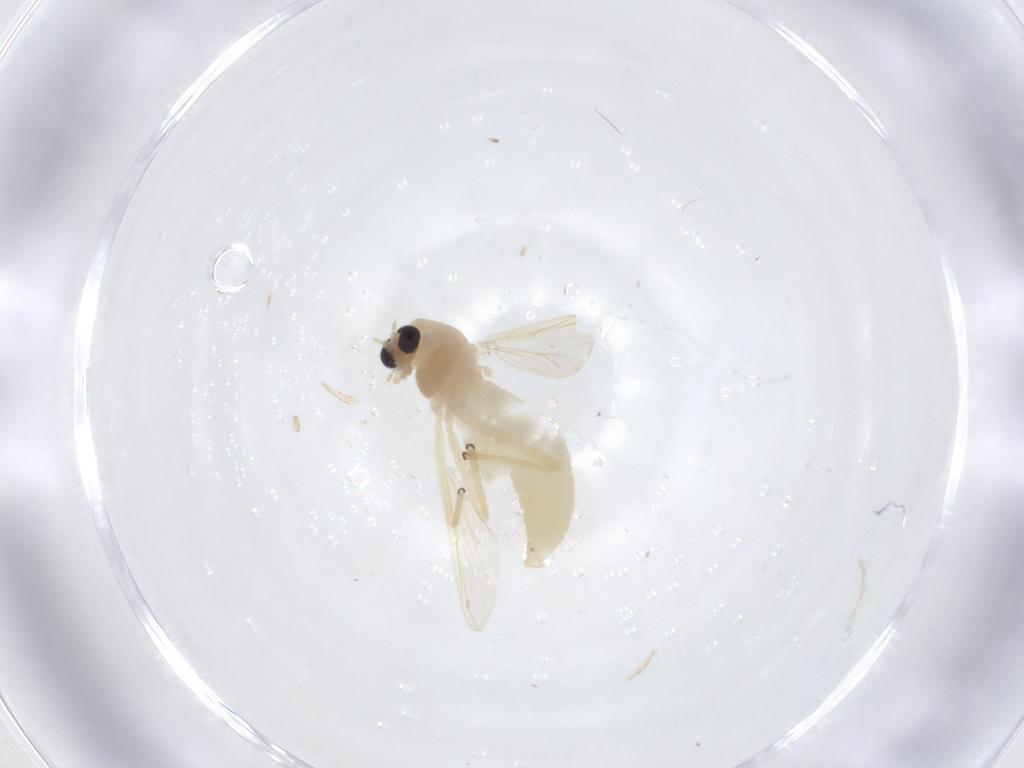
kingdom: Animalia
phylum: Arthropoda
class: Insecta
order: Diptera
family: Chironomidae
